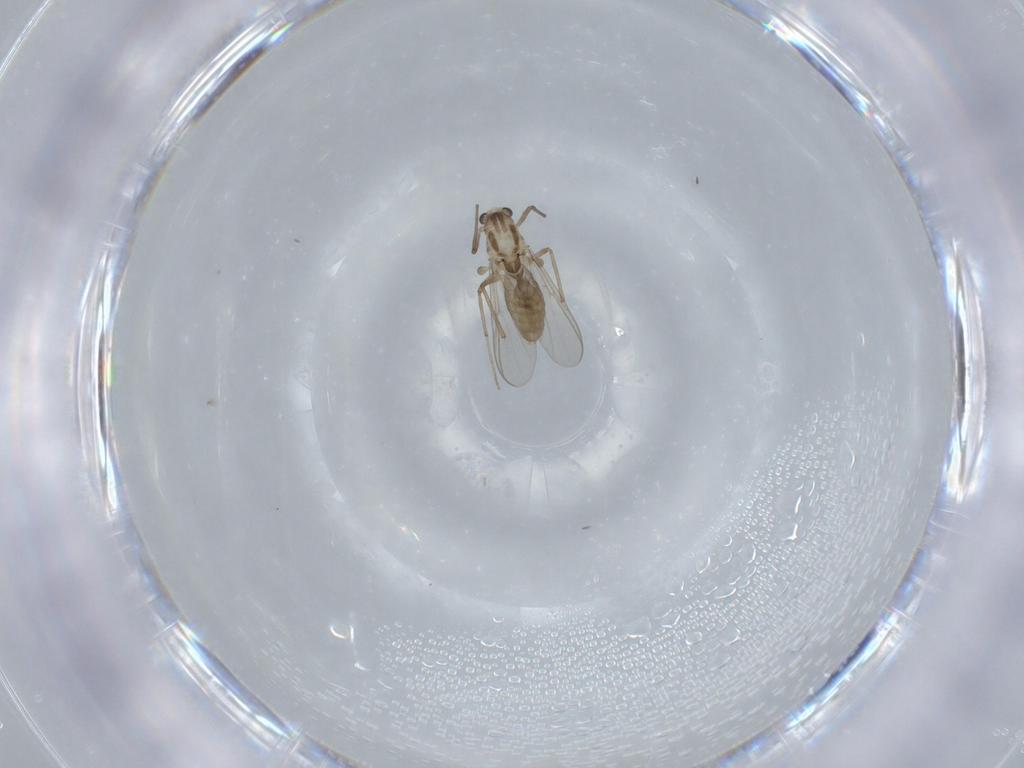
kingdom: Animalia
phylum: Arthropoda
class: Insecta
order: Diptera
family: Chironomidae
